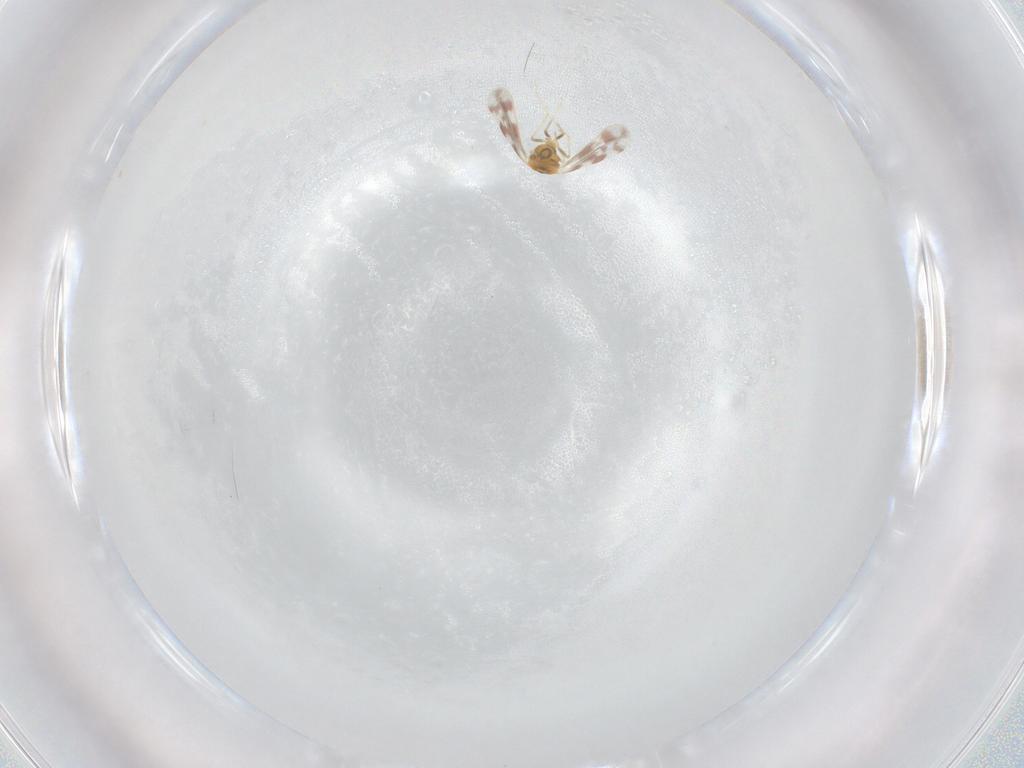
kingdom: Animalia
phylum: Arthropoda
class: Insecta
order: Hemiptera
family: Aleyrodidae
